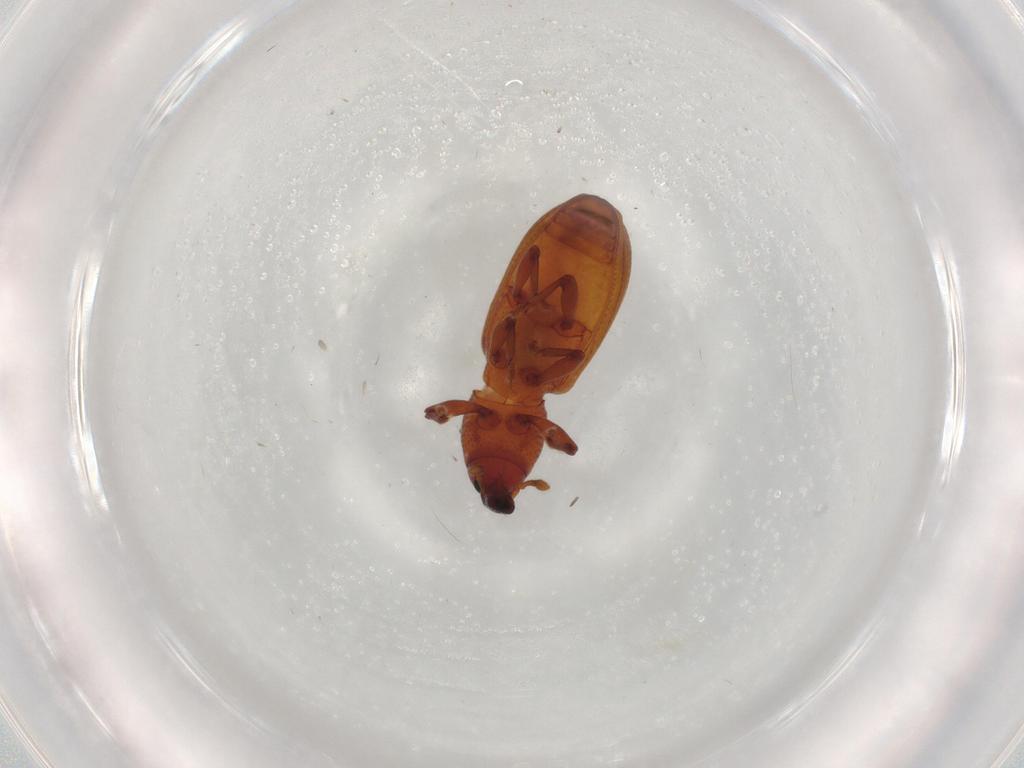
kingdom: Animalia
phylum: Arthropoda
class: Insecta
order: Coleoptera
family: Curculionidae
